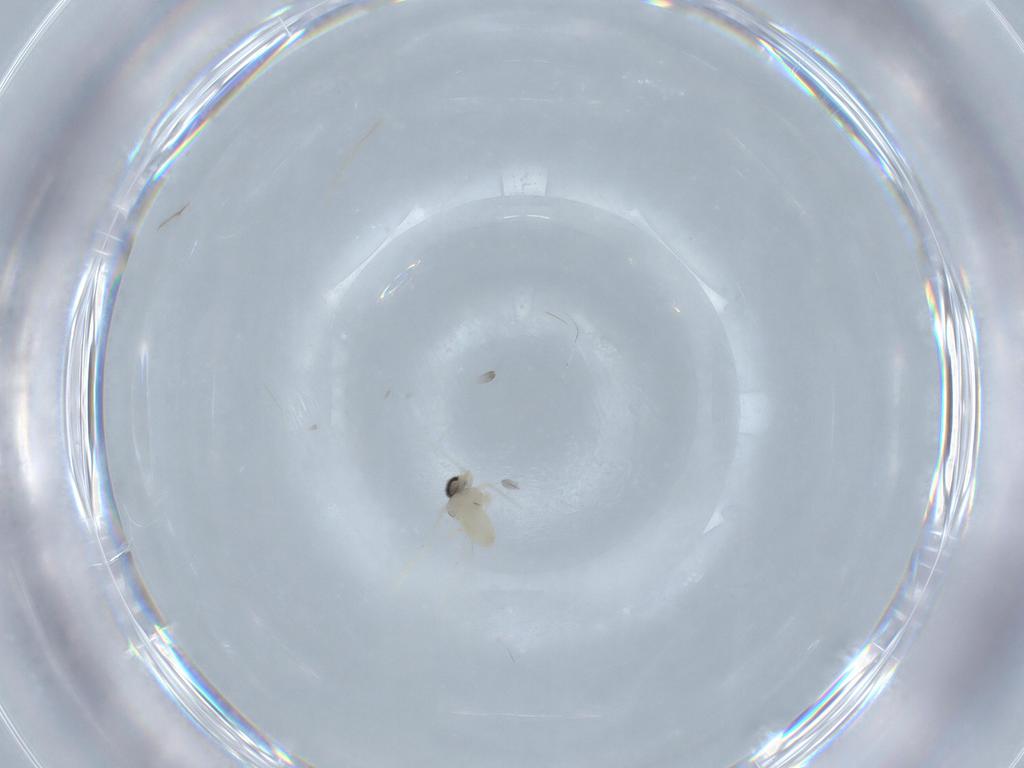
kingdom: Animalia
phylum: Arthropoda
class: Insecta
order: Diptera
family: Cecidomyiidae
